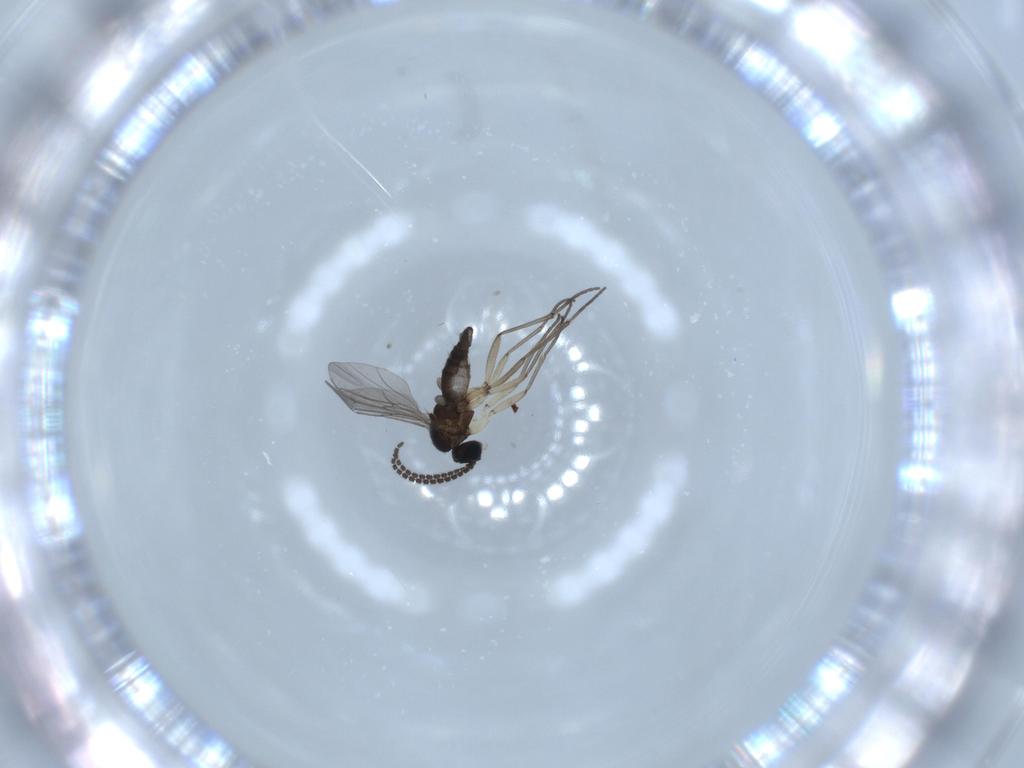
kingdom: Animalia
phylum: Arthropoda
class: Insecta
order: Diptera
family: Sciaridae
